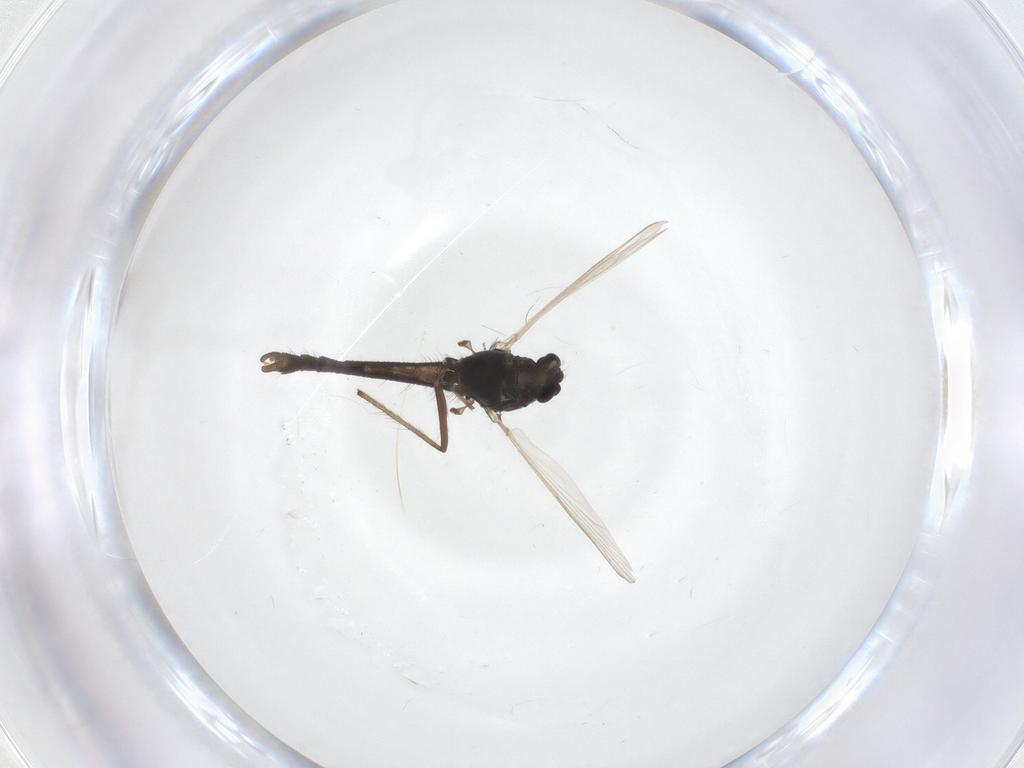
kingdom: Animalia
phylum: Arthropoda
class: Insecta
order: Diptera
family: Chironomidae
